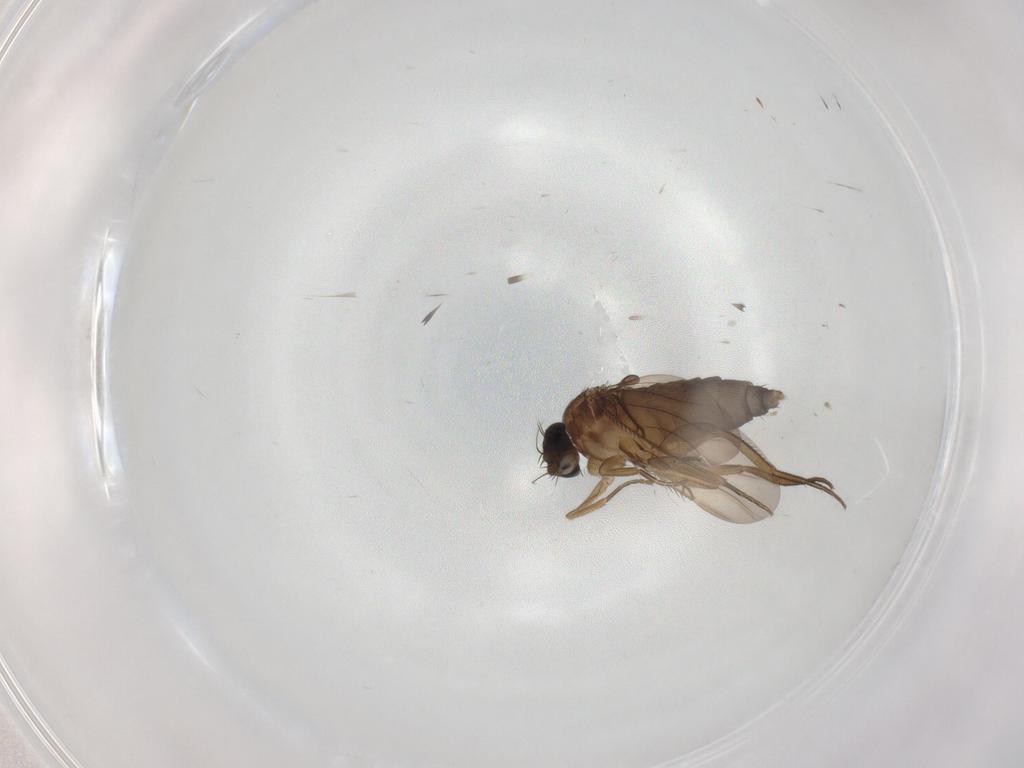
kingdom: Animalia
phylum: Arthropoda
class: Insecta
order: Diptera
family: Phoridae
